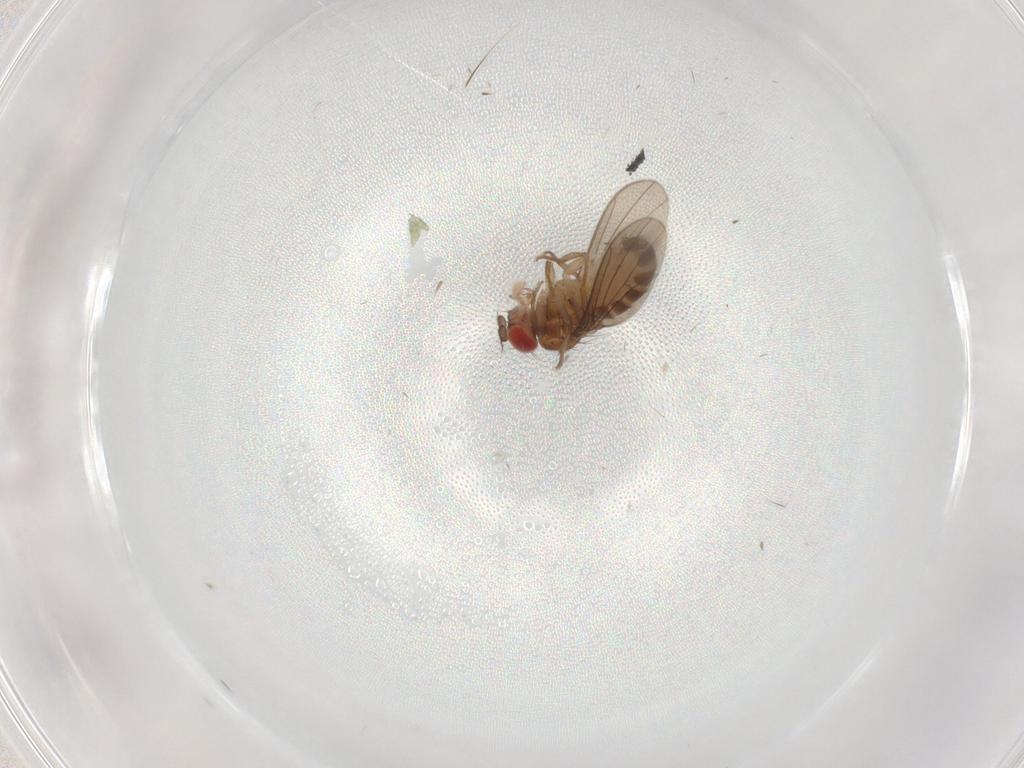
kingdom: Animalia
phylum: Arthropoda
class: Insecta
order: Diptera
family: Drosophilidae
